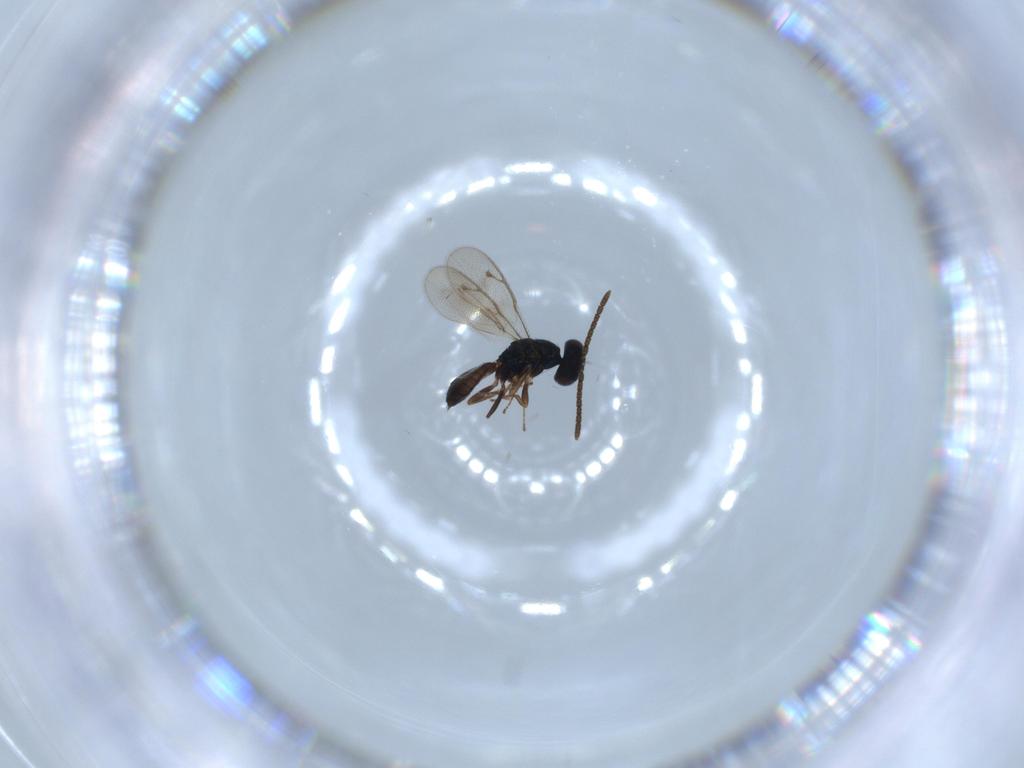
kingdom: Animalia
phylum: Arthropoda
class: Insecta
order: Hymenoptera
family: Pteromalidae
